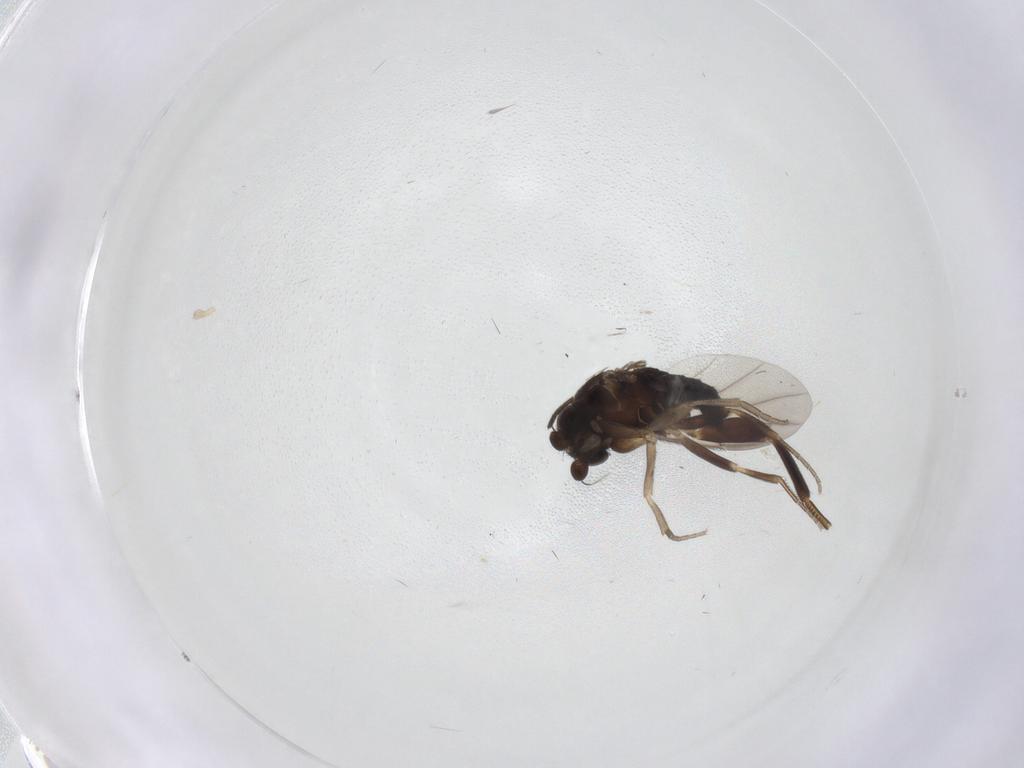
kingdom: Animalia
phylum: Arthropoda
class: Insecta
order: Diptera
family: Sciaridae
